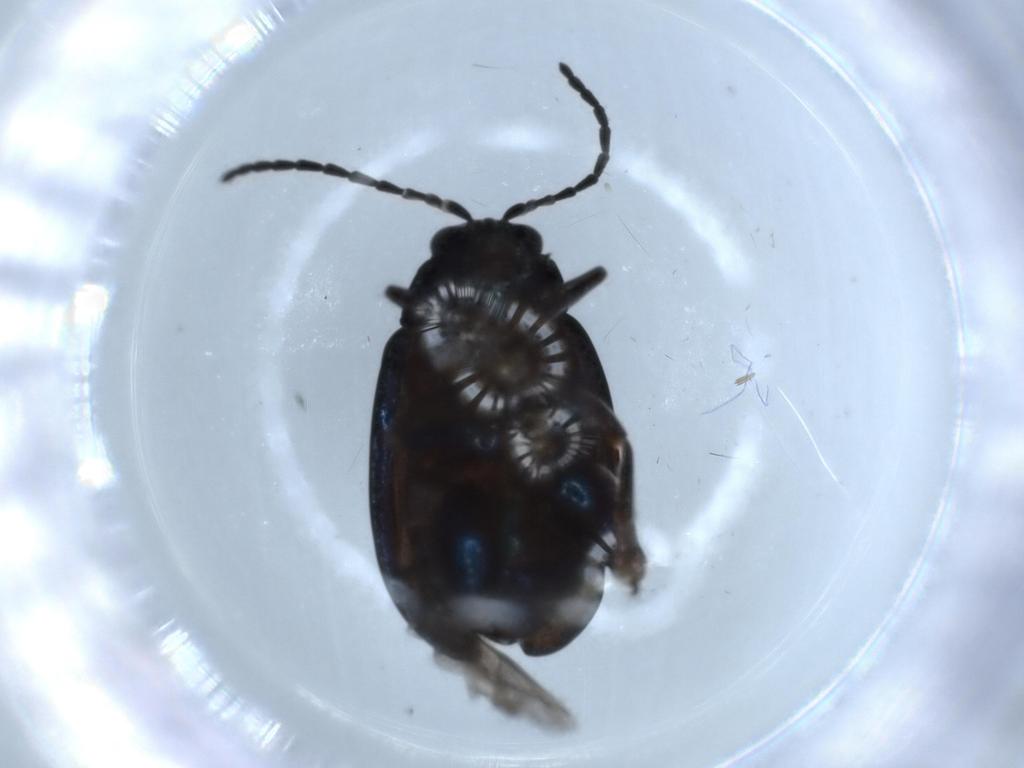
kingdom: Animalia
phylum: Arthropoda
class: Insecta
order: Coleoptera
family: Chrysomelidae
